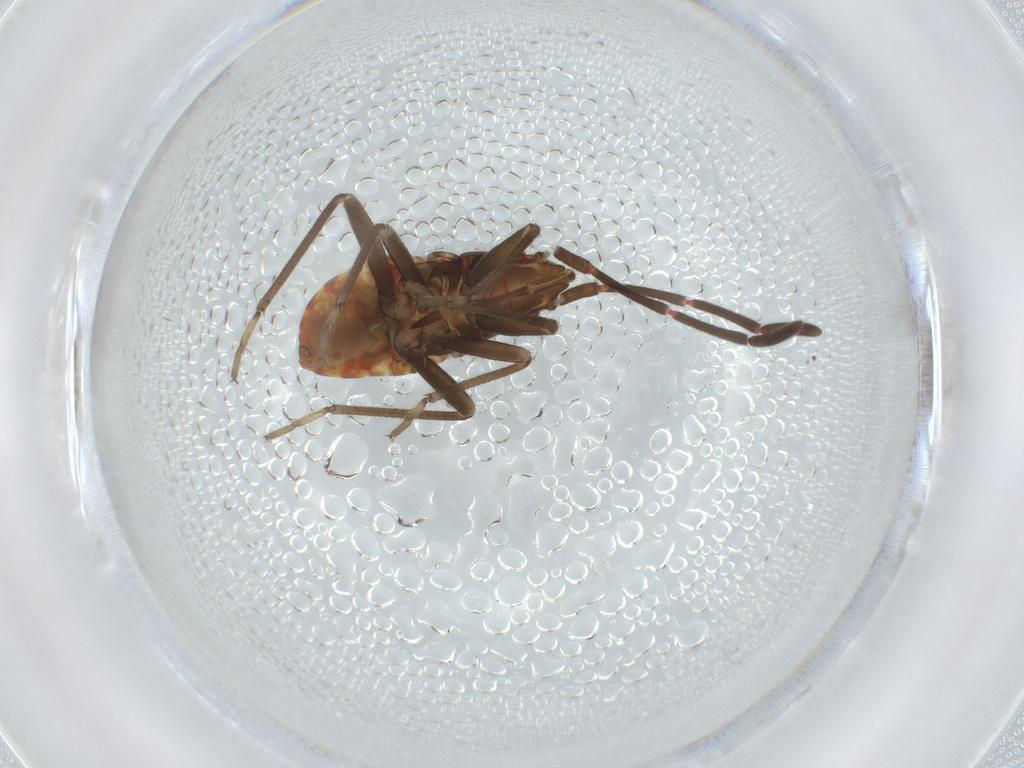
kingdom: Animalia
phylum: Arthropoda
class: Insecta
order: Hemiptera
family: Rhyparochromidae
